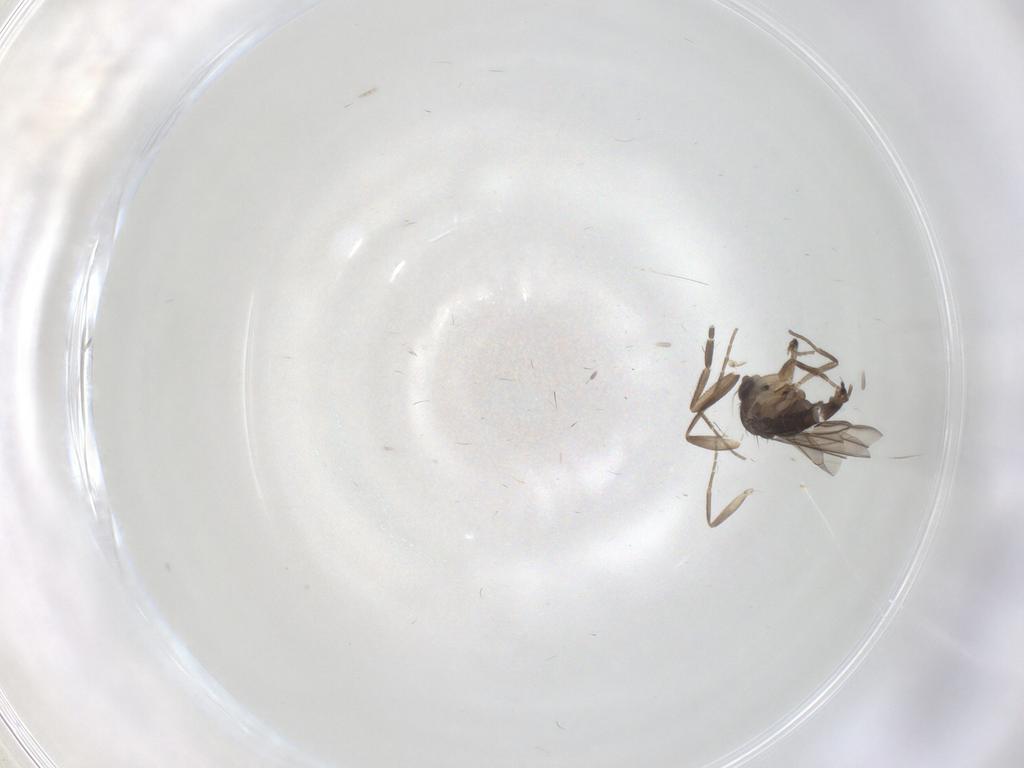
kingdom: Animalia
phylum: Arthropoda
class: Insecta
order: Diptera
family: Phoridae
